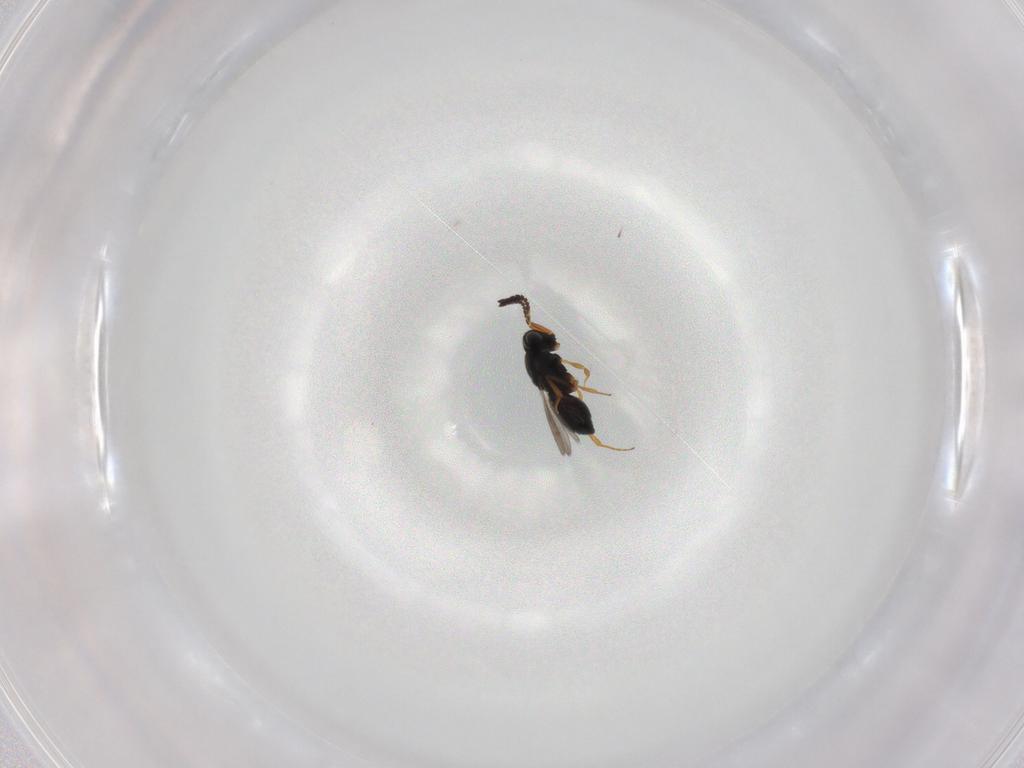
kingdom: Animalia
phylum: Arthropoda
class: Insecta
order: Hymenoptera
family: Scelionidae
